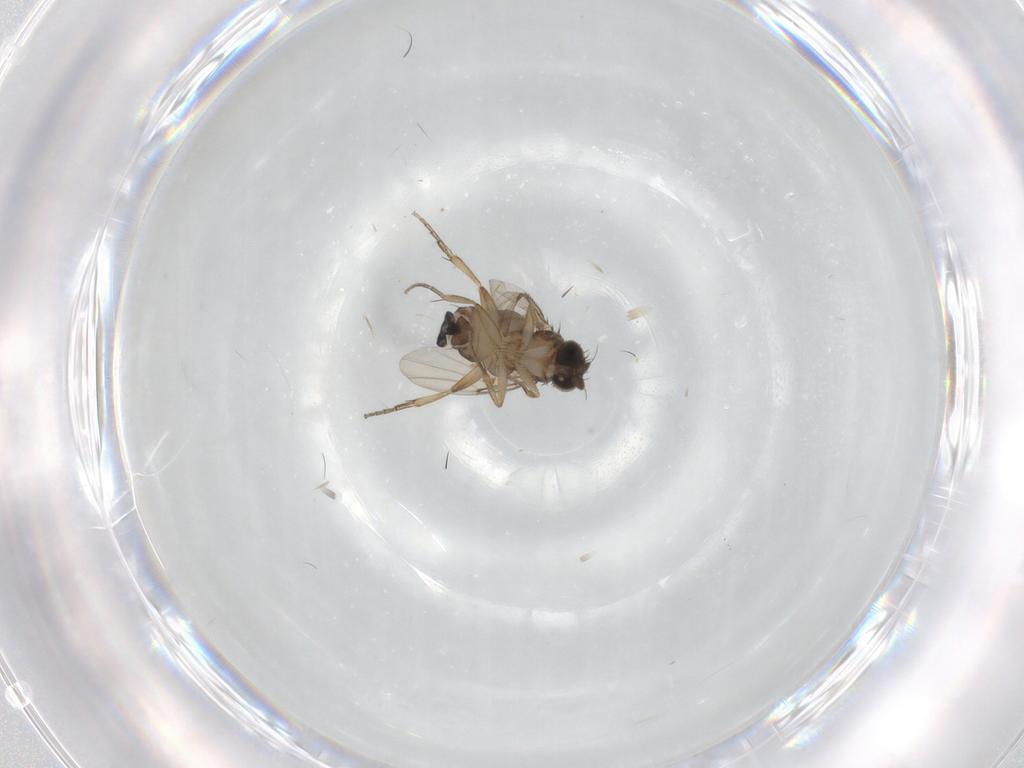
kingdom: Animalia
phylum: Arthropoda
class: Insecta
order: Diptera
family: Phoridae
